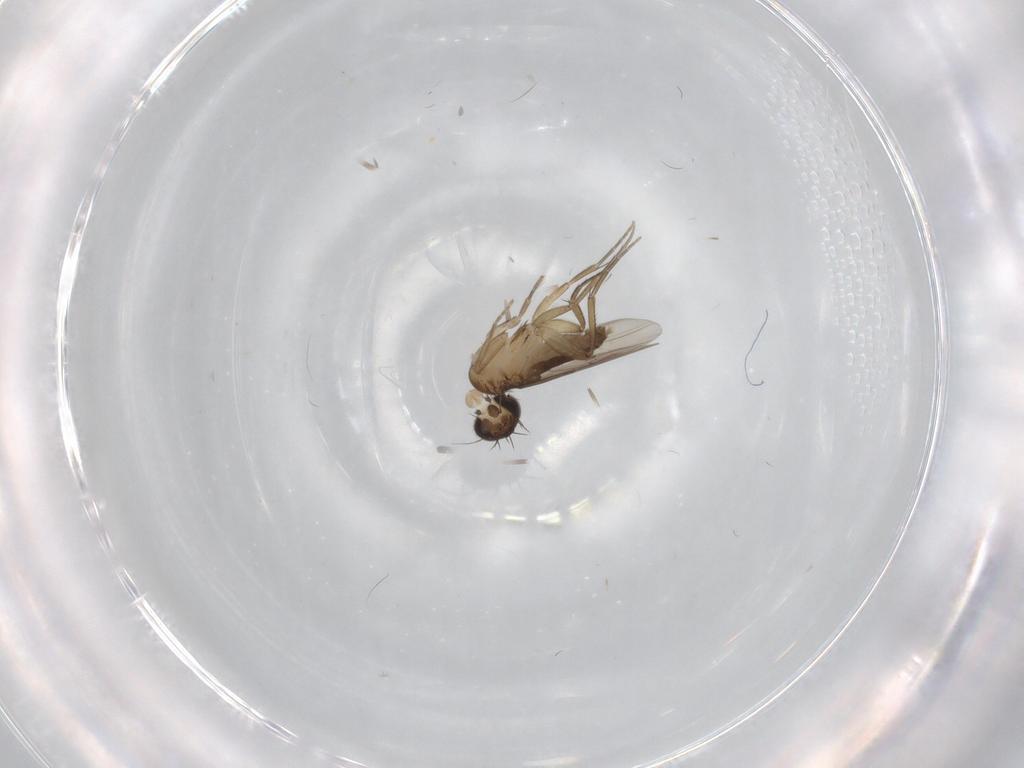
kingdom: Animalia
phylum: Arthropoda
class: Insecta
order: Diptera
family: Phoridae
